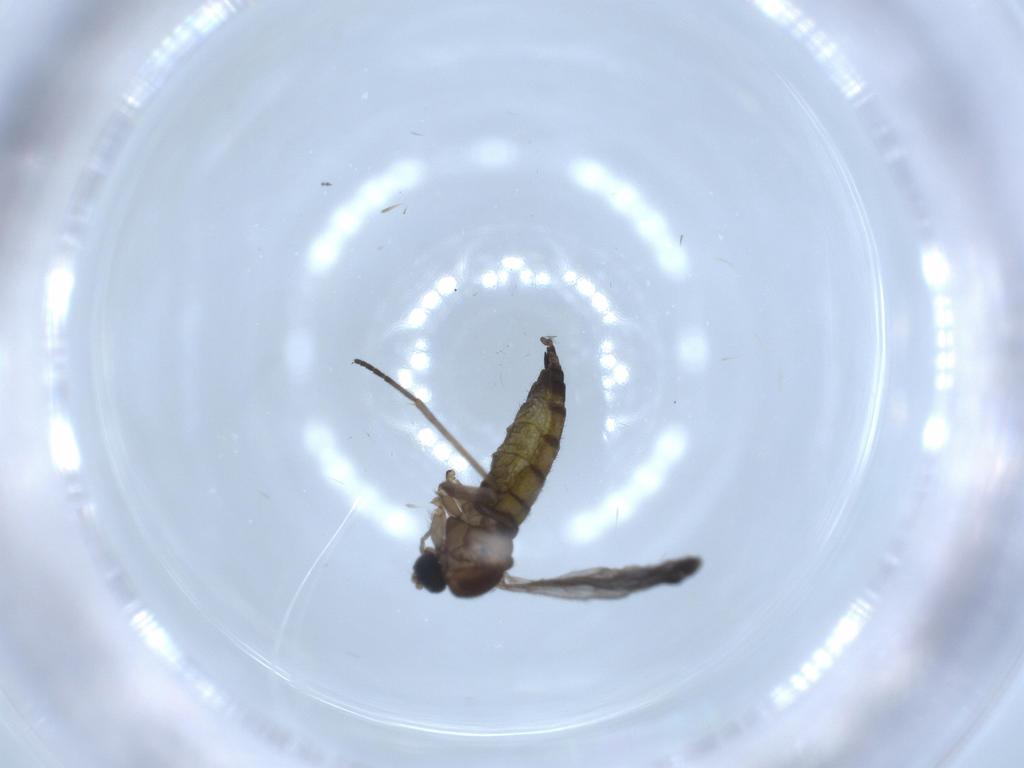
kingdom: Animalia
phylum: Arthropoda
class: Insecta
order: Diptera
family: Sciaridae
